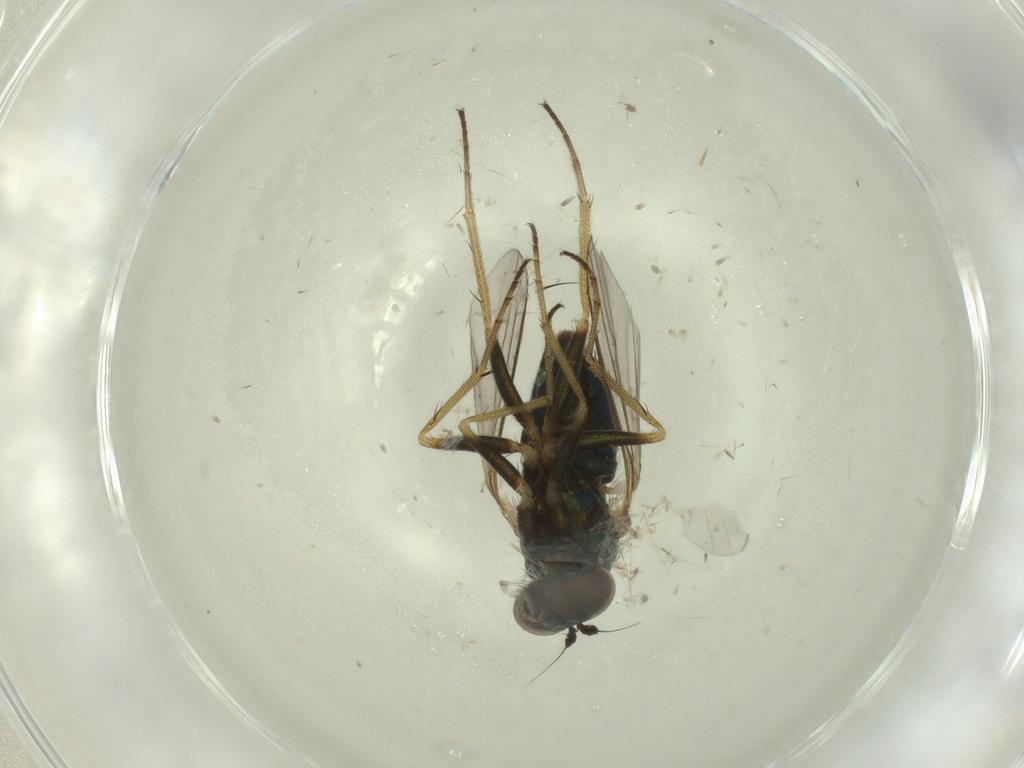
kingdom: Animalia
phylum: Arthropoda
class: Insecta
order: Diptera
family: Dolichopodidae
